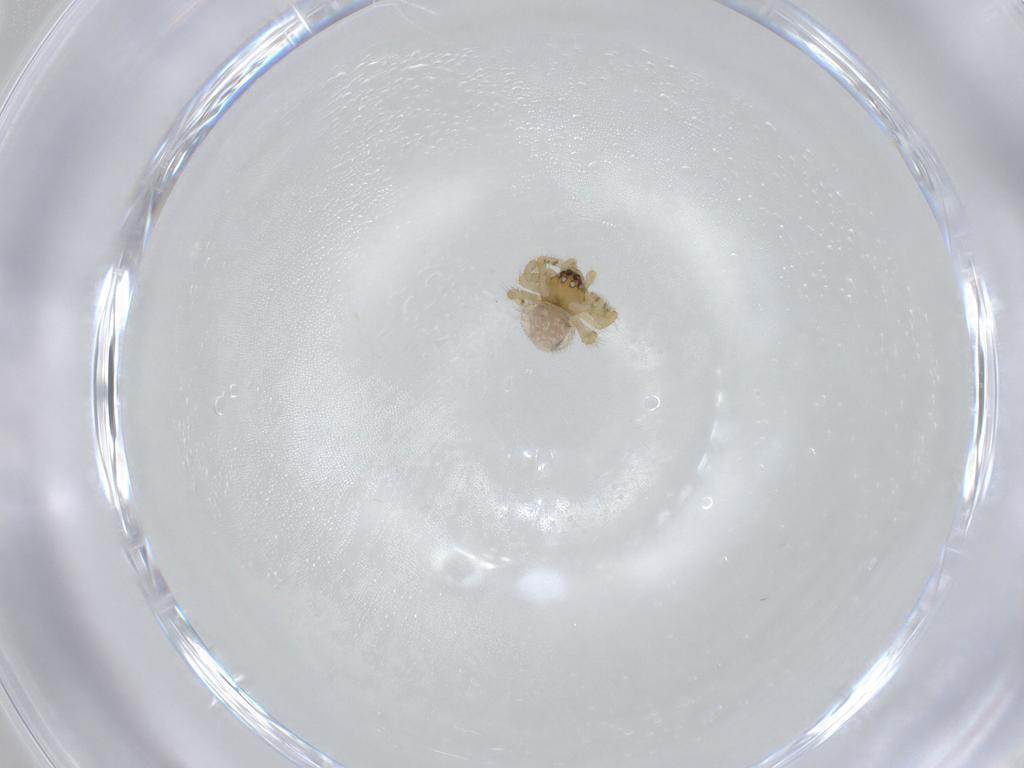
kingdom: Animalia
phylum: Arthropoda
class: Arachnida
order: Araneae
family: Theridiidae
